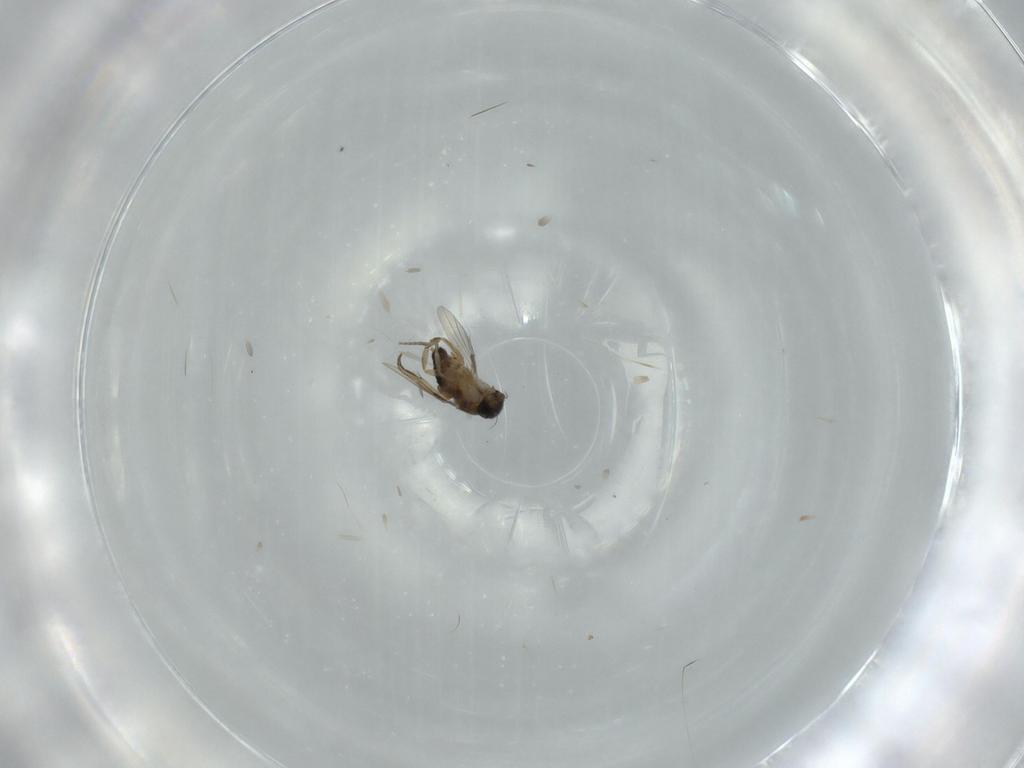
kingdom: Animalia
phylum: Arthropoda
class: Insecta
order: Diptera
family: Phoridae
